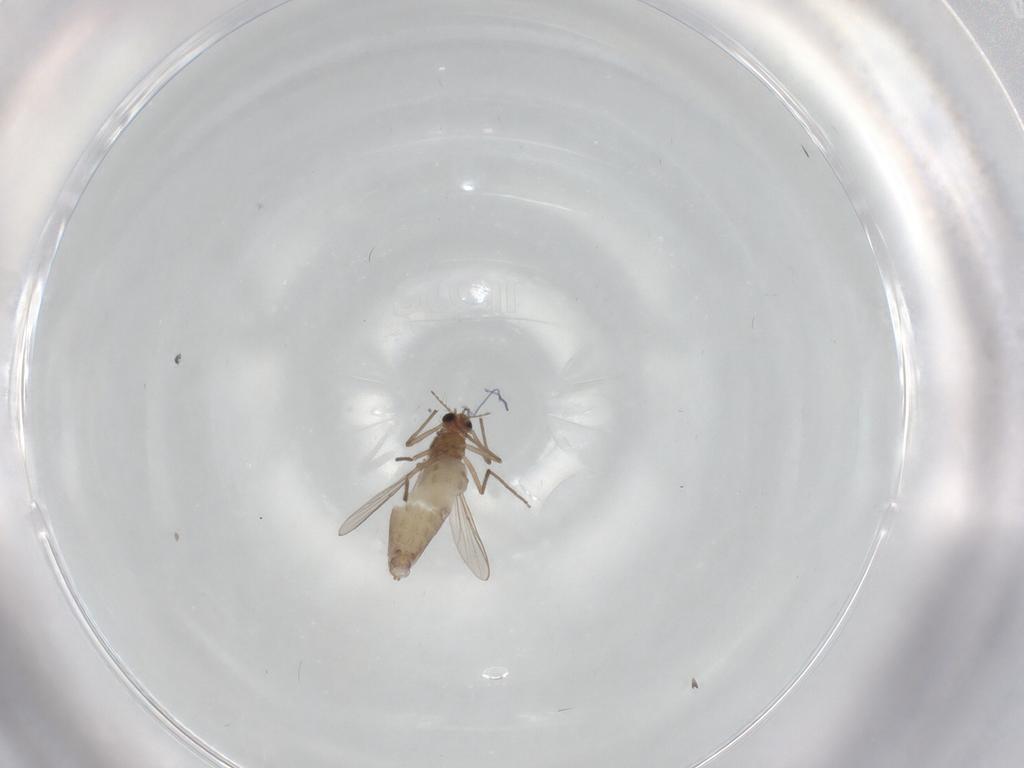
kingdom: Animalia
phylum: Arthropoda
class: Insecta
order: Diptera
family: Chironomidae
